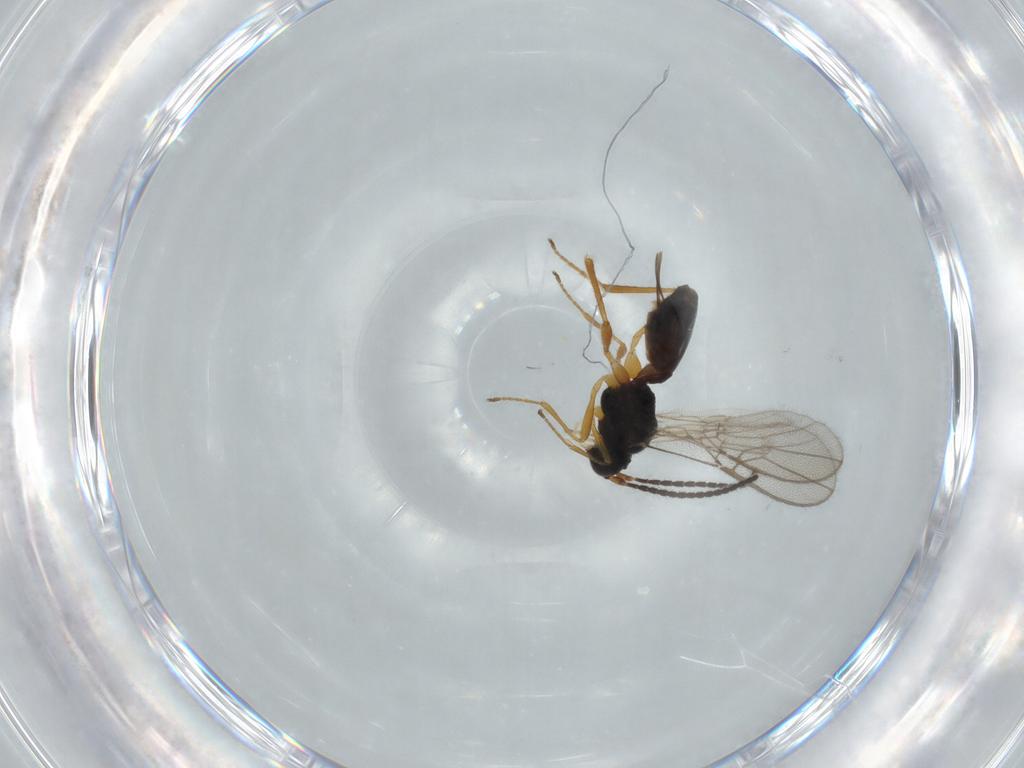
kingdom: Animalia
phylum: Arthropoda
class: Insecta
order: Hymenoptera
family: Braconidae
